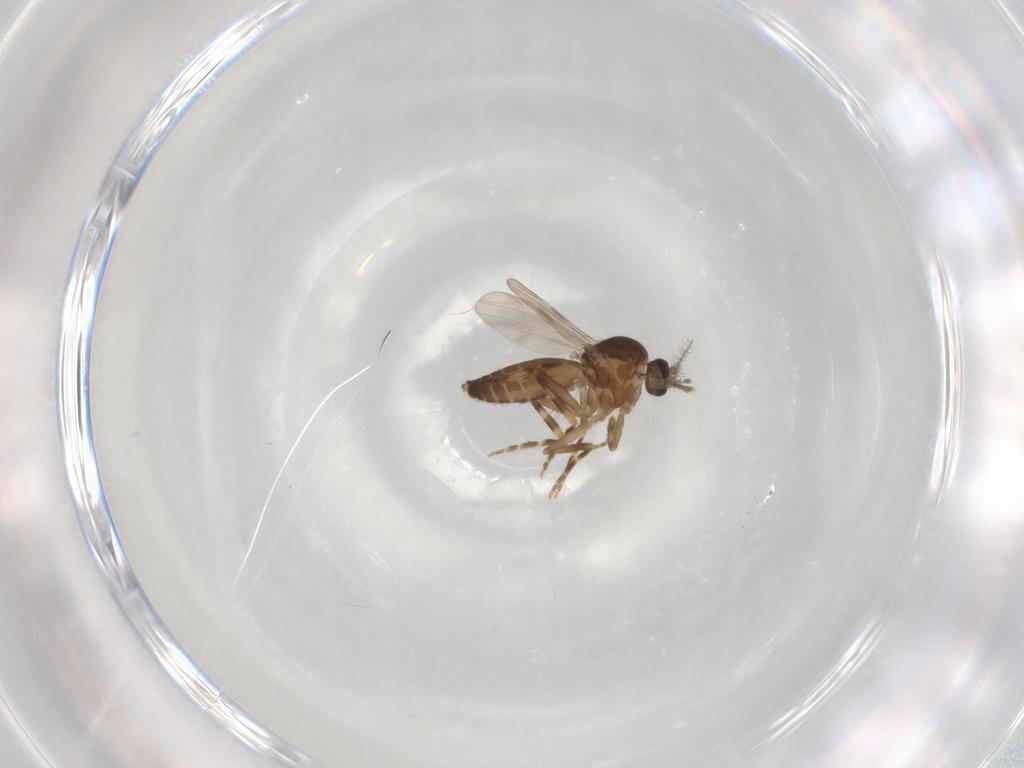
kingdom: Animalia
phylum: Arthropoda
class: Insecta
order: Diptera
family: Ceratopogonidae
